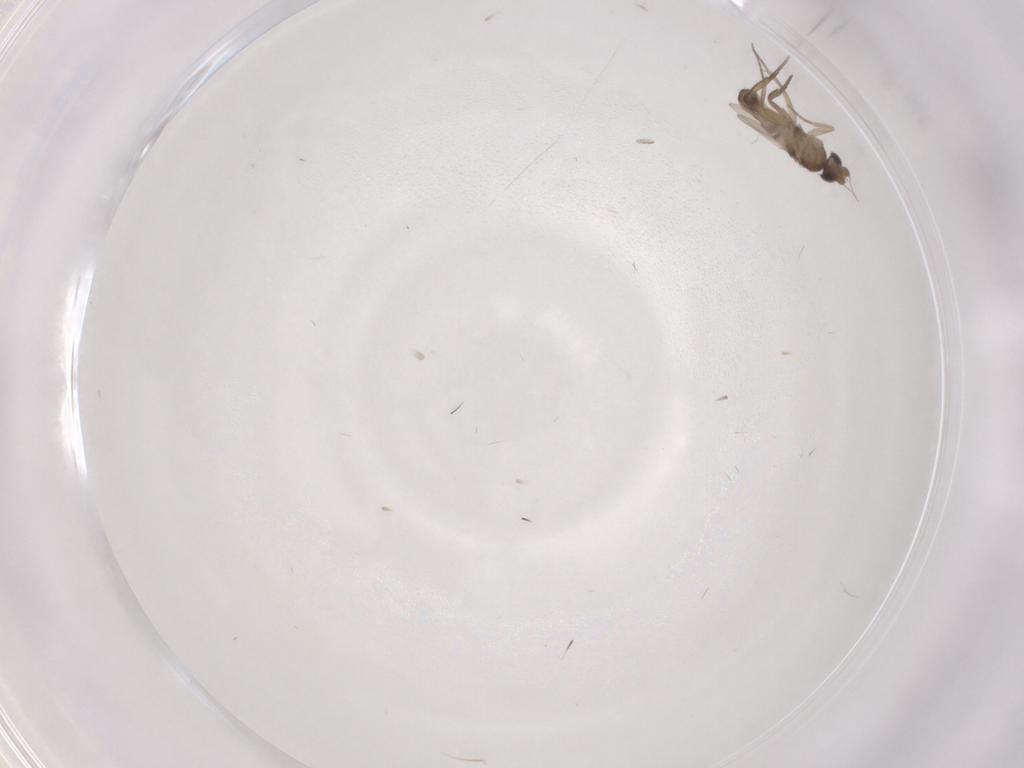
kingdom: Animalia
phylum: Arthropoda
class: Insecta
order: Diptera
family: Phoridae
